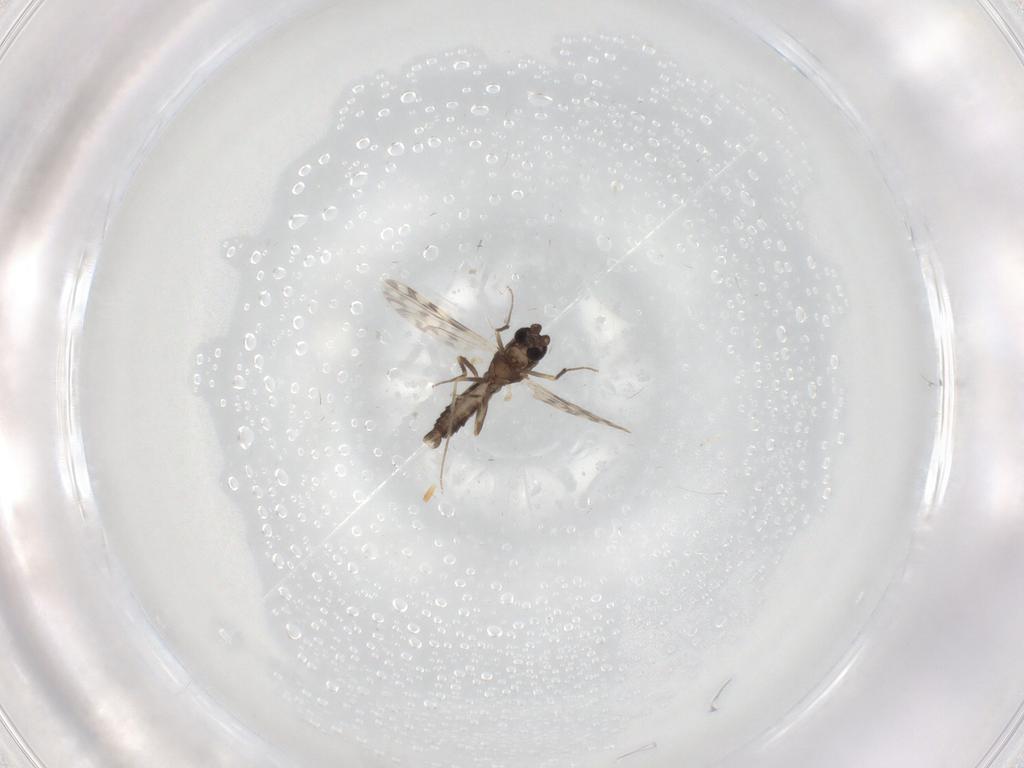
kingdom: Animalia
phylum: Arthropoda
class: Insecta
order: Diptera
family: Ceratopogonidae
